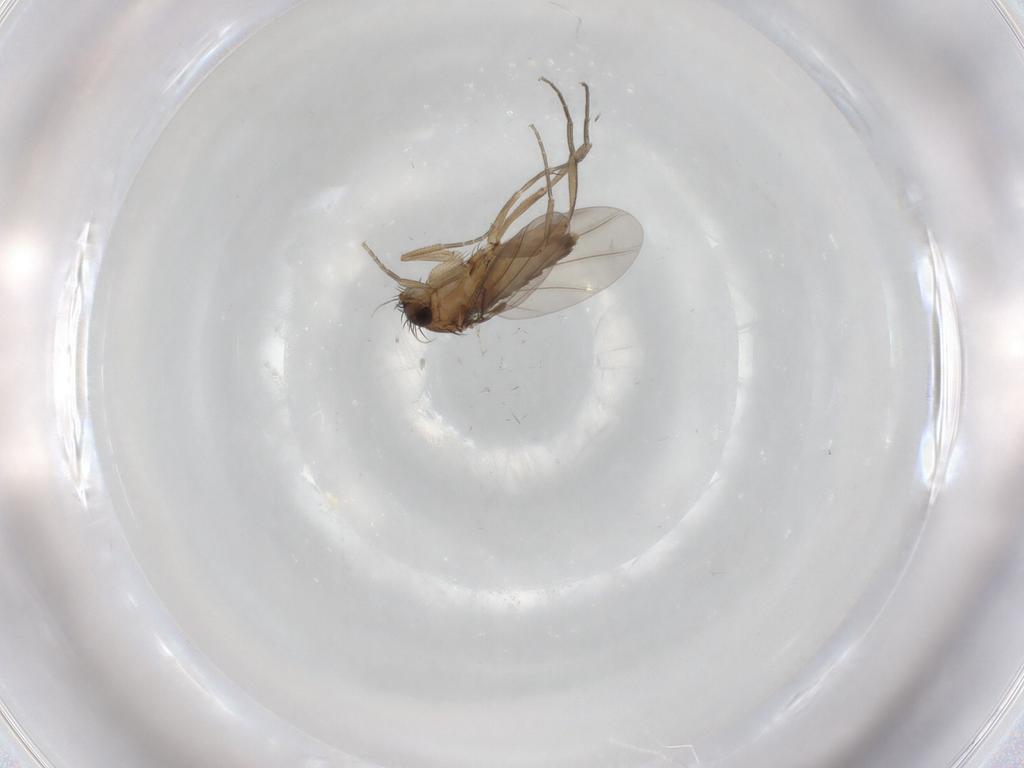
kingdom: Animalia
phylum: Arthropoda
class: Insecta
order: Diptera
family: Phoridae
